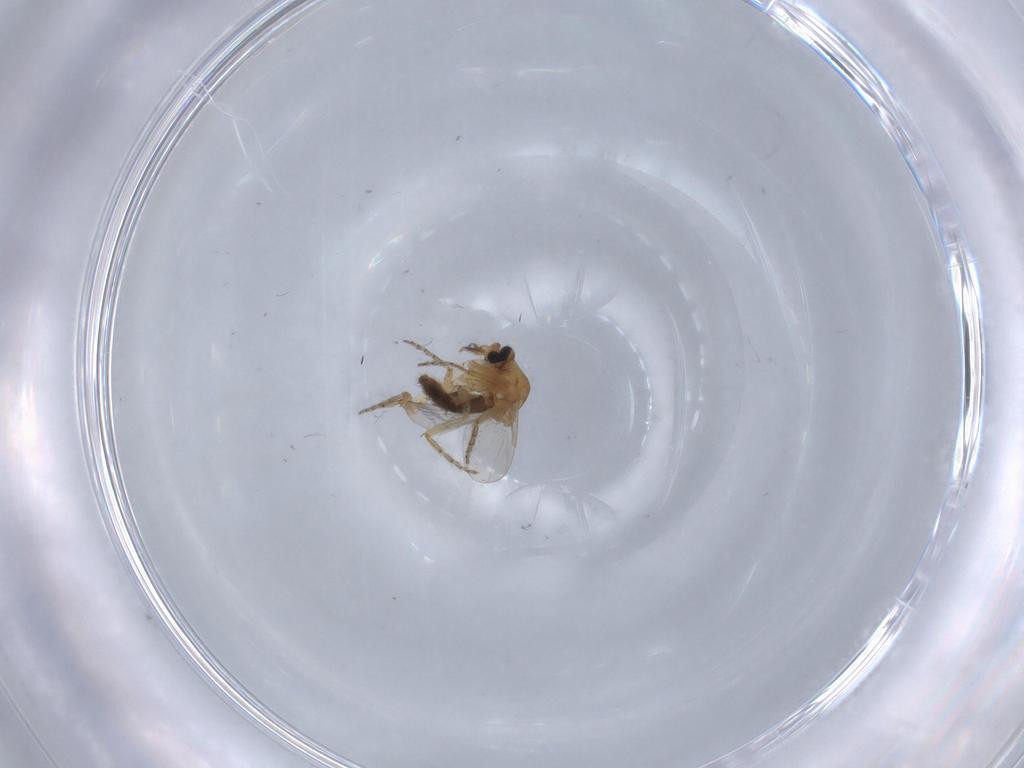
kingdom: Animalia
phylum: Arthropoda
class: Insecta
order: Diptera
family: Ceratopogonidae
